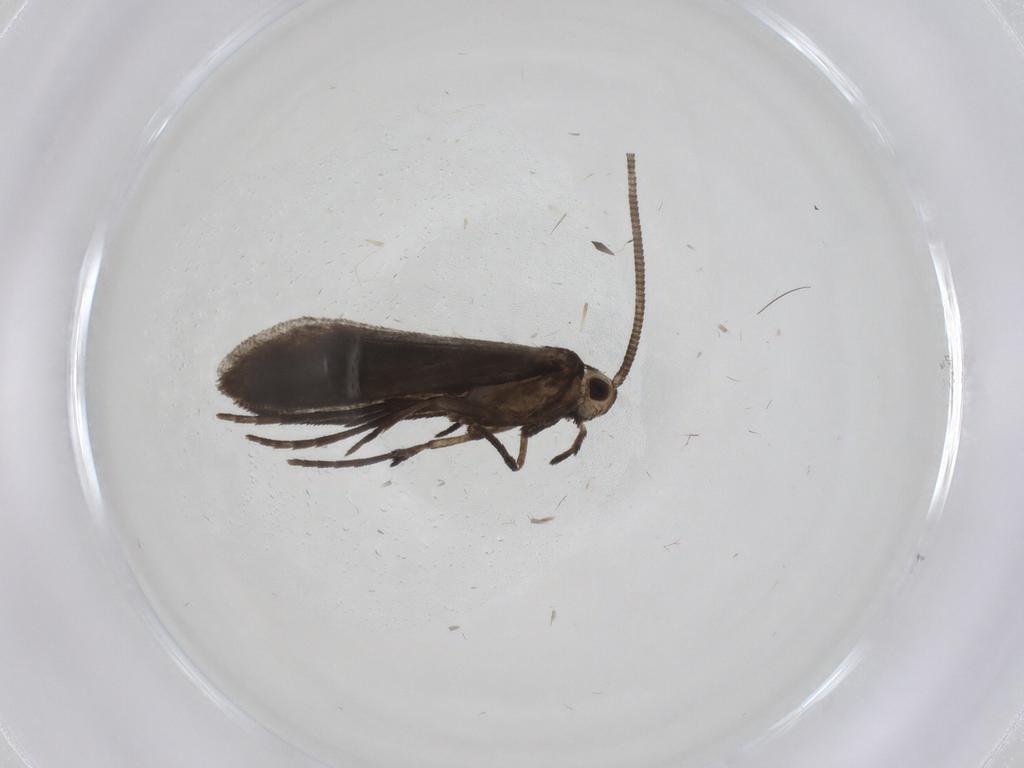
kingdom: Animalia
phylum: Arthropoda
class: Insecta
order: Lepidoptera
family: Nymphalidae
